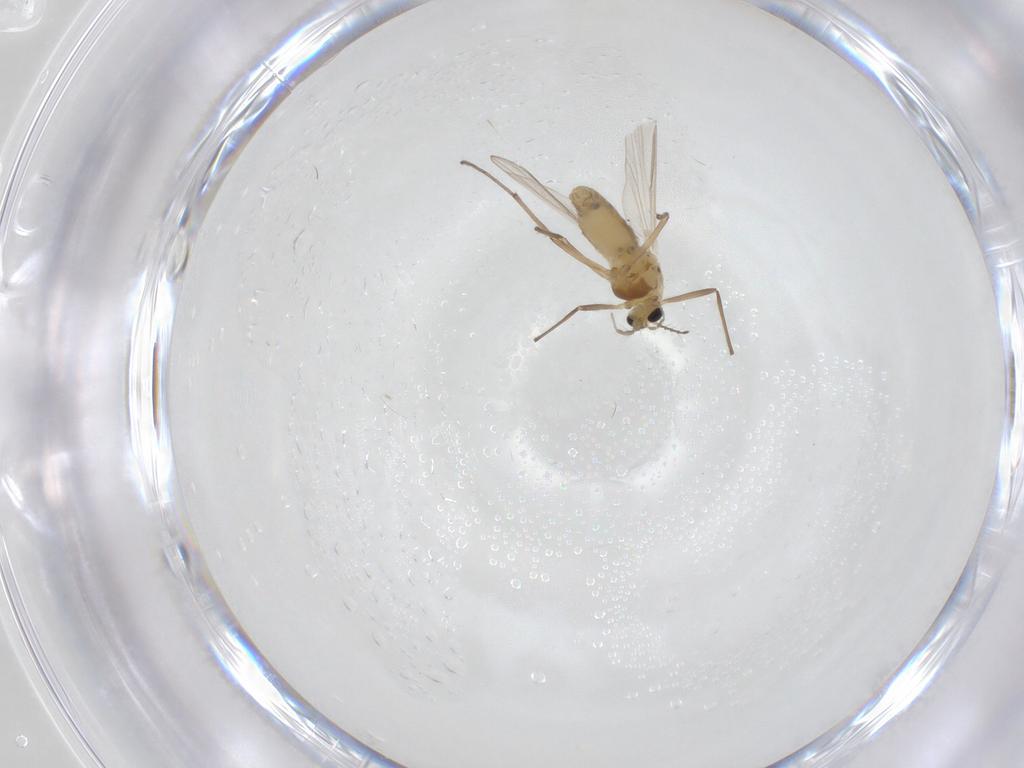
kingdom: Animalia
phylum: Arthropoda
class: Insecta
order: Diptera
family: Chironomidae
